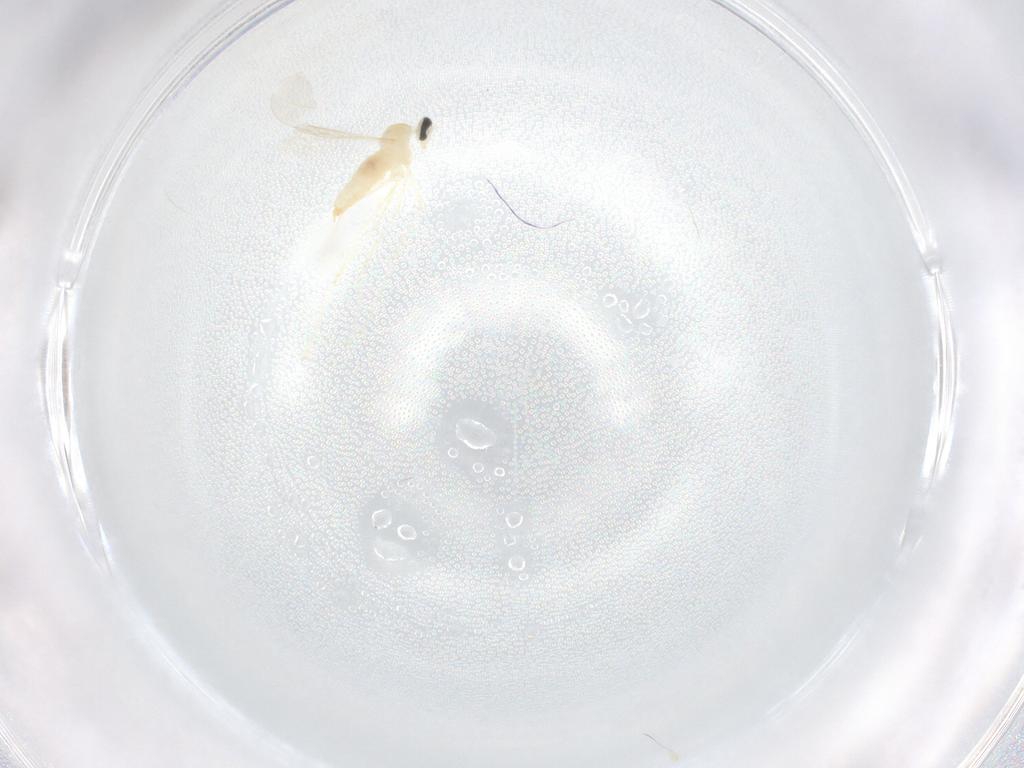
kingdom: Animalia
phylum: Arthropoda
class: Insecta
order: Diptera
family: Cecidomyiidae
